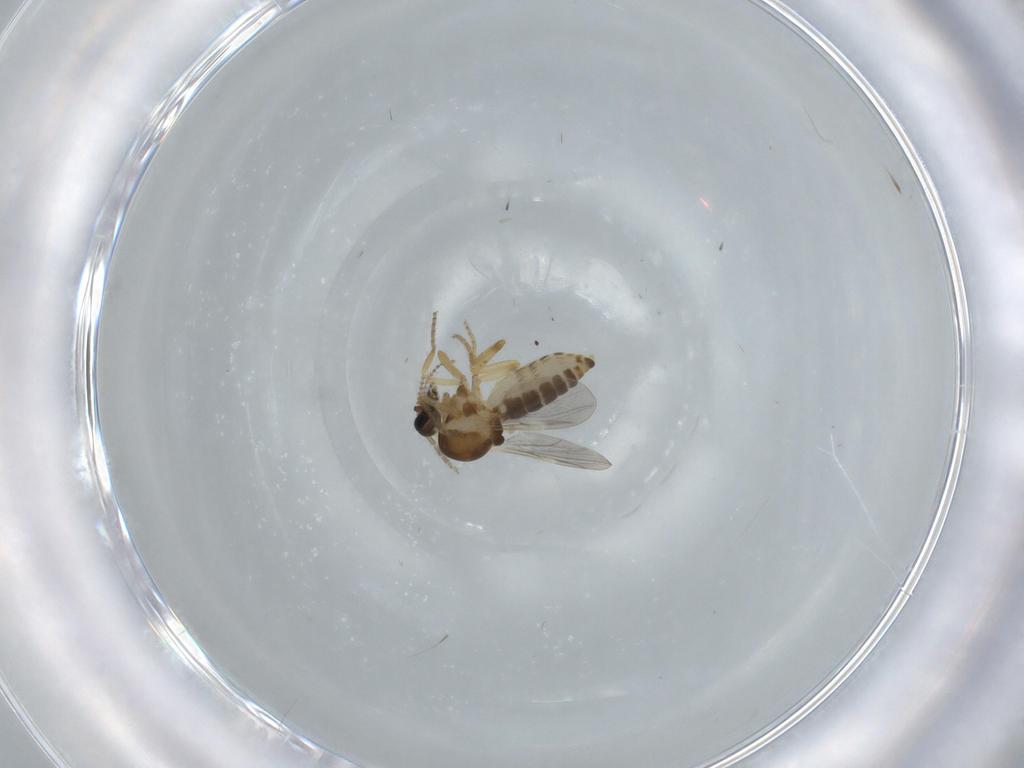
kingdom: Animalia
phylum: Arthropoda
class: Insecta
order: Diptera
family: Ceratopogonidae
